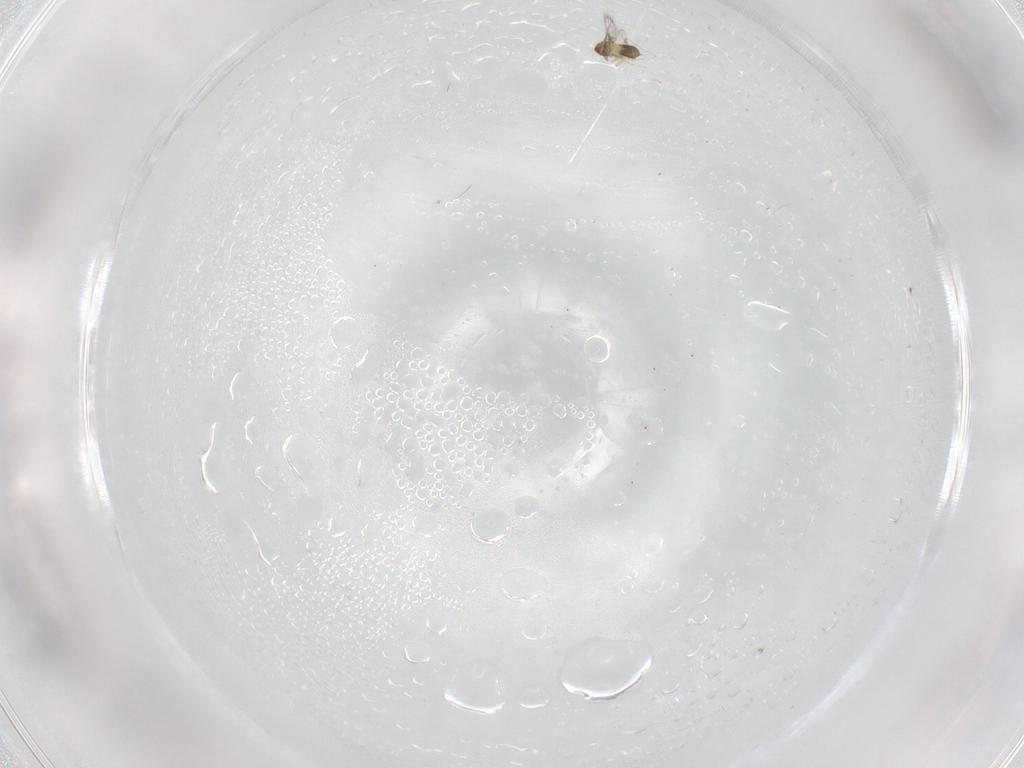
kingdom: Animalia
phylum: Arthropoda
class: Insecta
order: Hymenoptera
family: Trichogrammatidae
